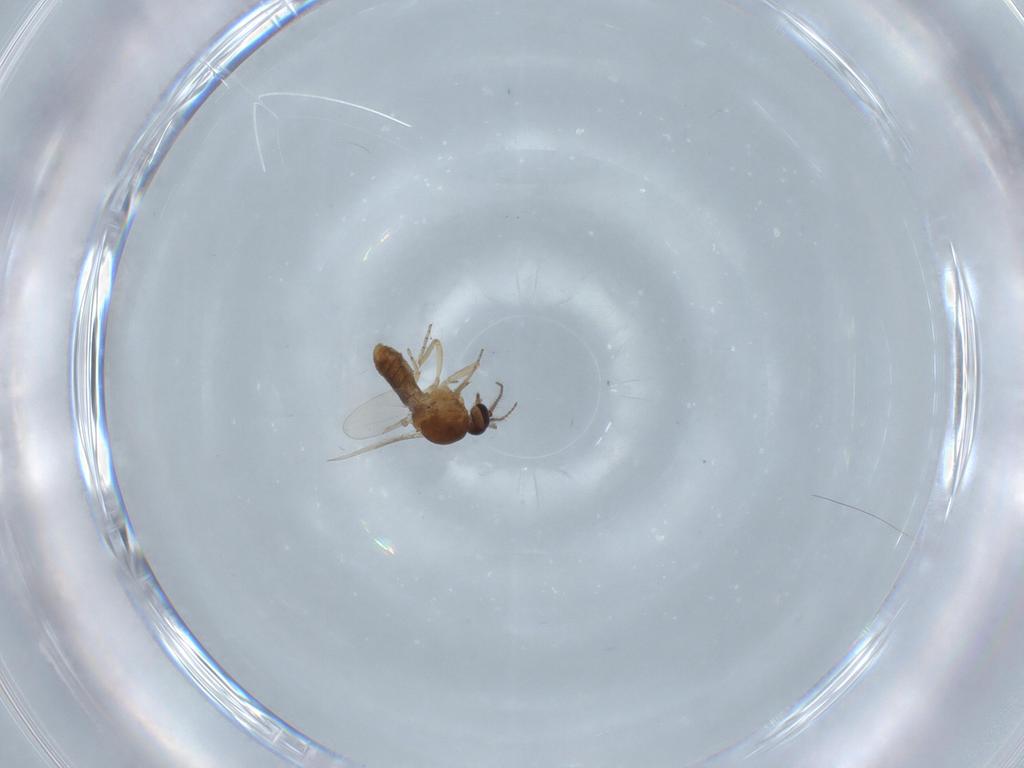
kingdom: Animalia
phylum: Arthropoda
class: Insecta
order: Diptera
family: Ceratopogonidae
